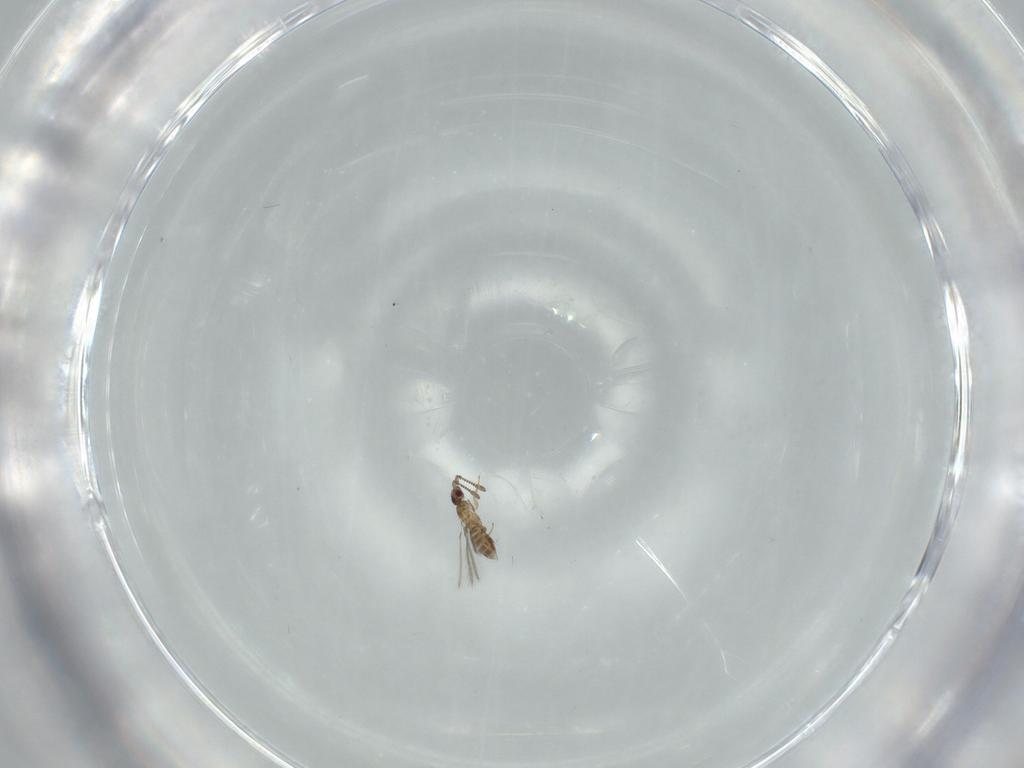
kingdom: Animalia
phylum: Arthropoda
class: Insecta
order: Hymenoptera
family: Mymaridae
